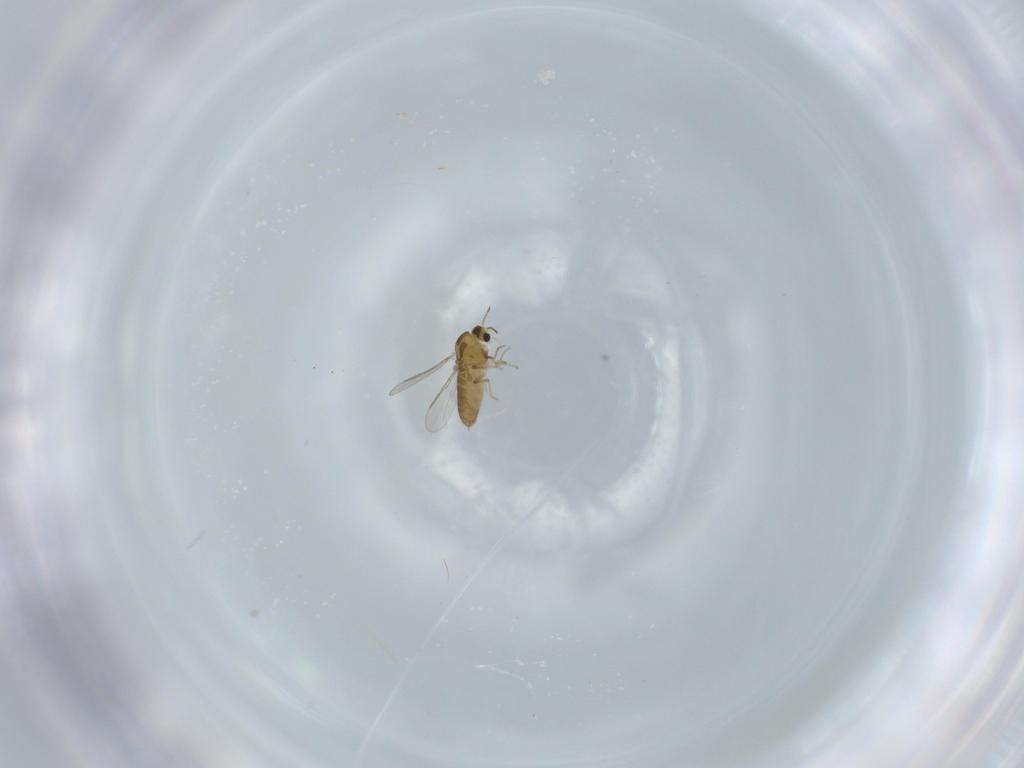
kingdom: Animalia
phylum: Arthropoda
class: Insecta
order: Diptera
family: Chironomidae
